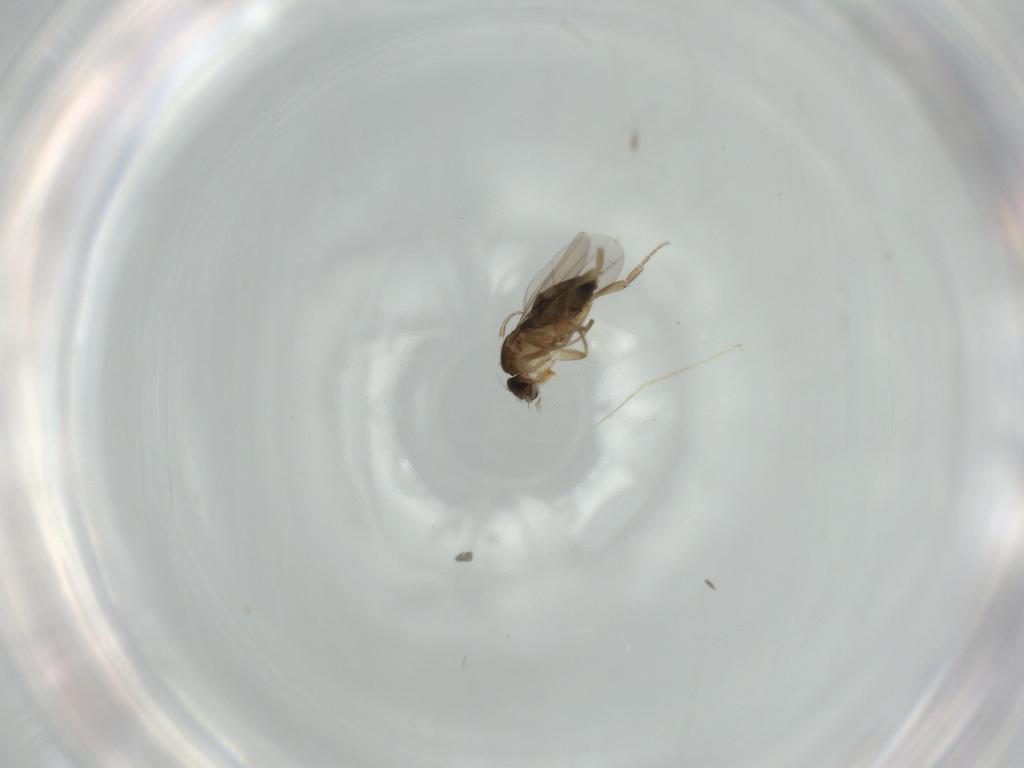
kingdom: Animalia
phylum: Arthropoda
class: Insecta
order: Diptera
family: Phoridae
